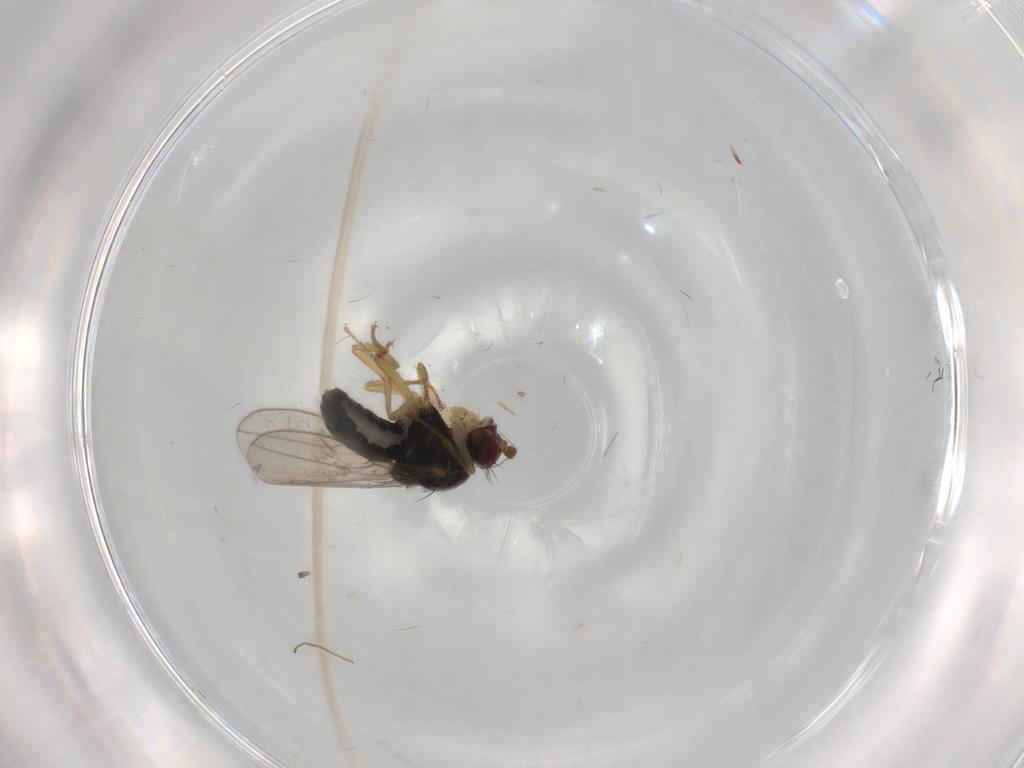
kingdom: Animalia
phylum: Arthropoda
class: Insecta
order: Diptera
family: Sphaeroceridae
